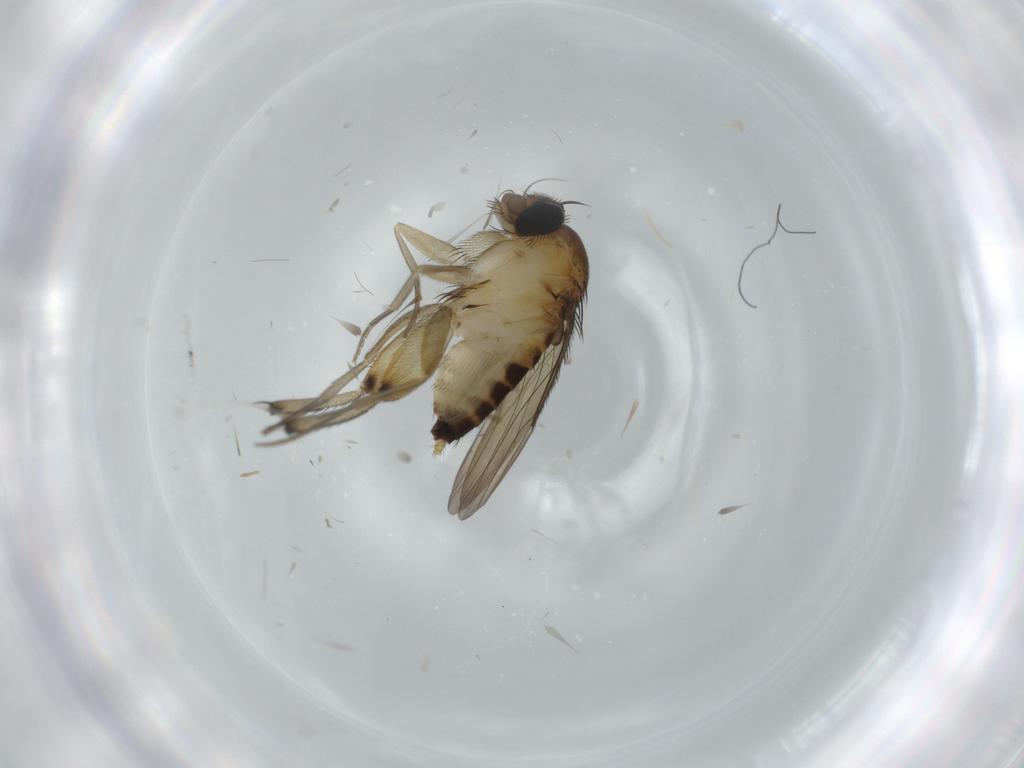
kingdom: Animalia
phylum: Arthropoda
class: Insecta
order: Diptera
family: Phoridae
